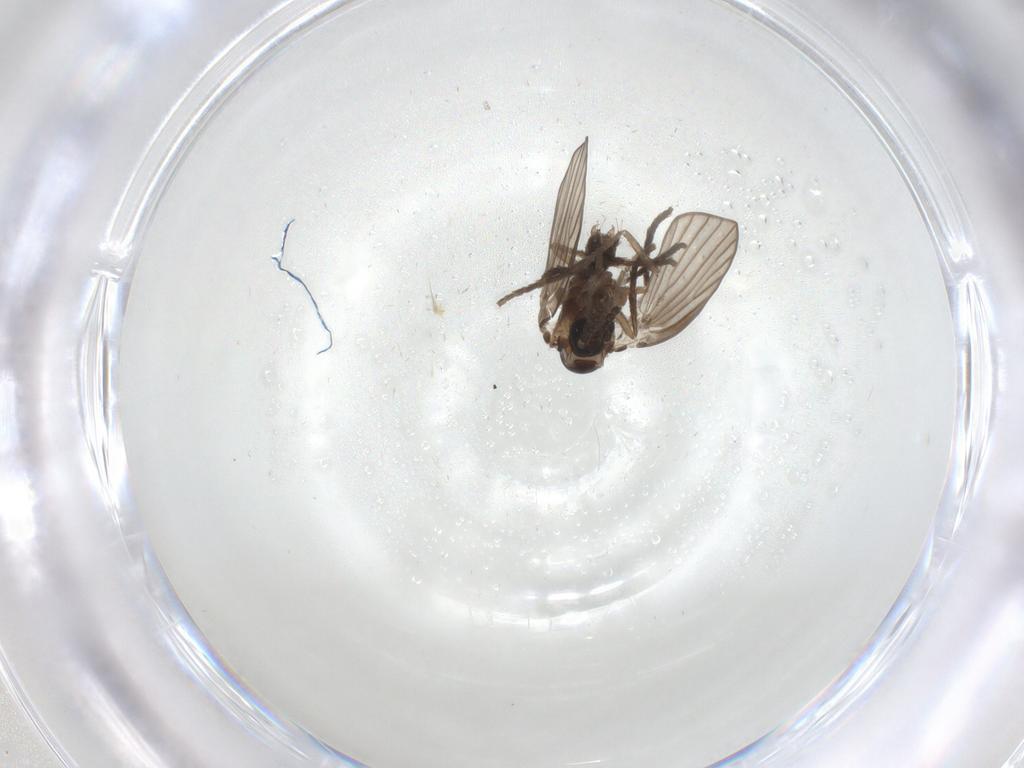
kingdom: Animalia
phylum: Arthropoda
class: Insecta
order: Diptera
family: Psychodidae
